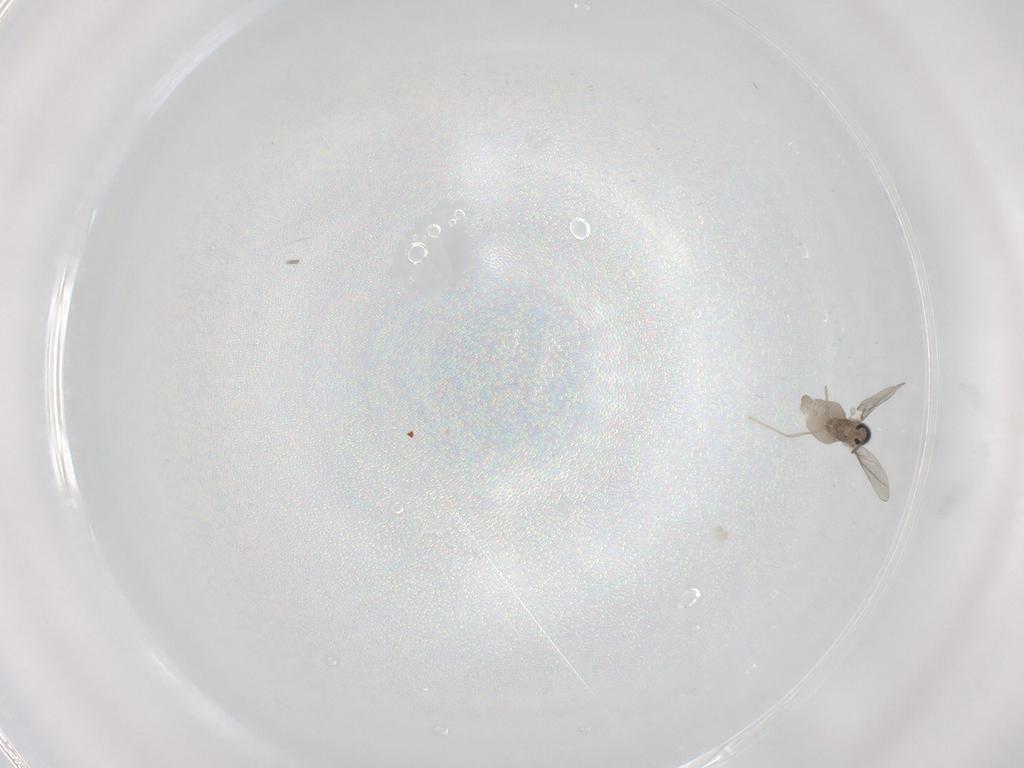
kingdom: Animalia
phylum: Arthropoda
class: Insecta
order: Diptera
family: Cecidomyiidae
